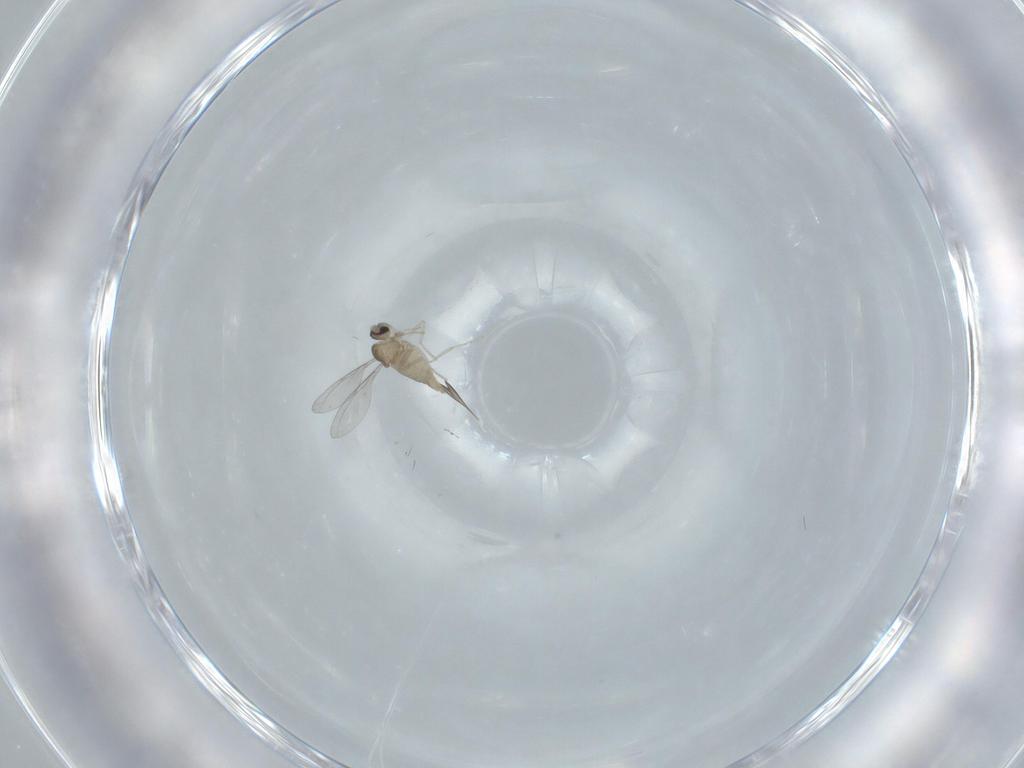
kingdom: Animalia
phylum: Arthropoda
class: Insecta
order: Diptera
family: Cecidomyiidae
